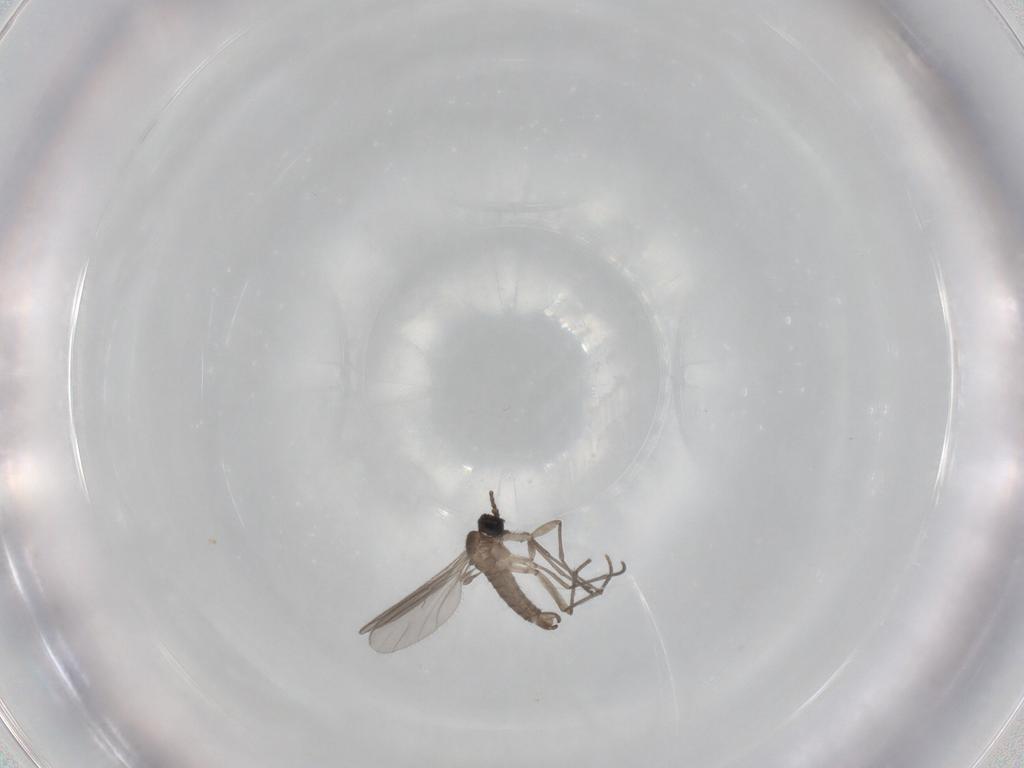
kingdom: Animalia
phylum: Arthropoda
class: Insecta
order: Diptera
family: Sciaridae
